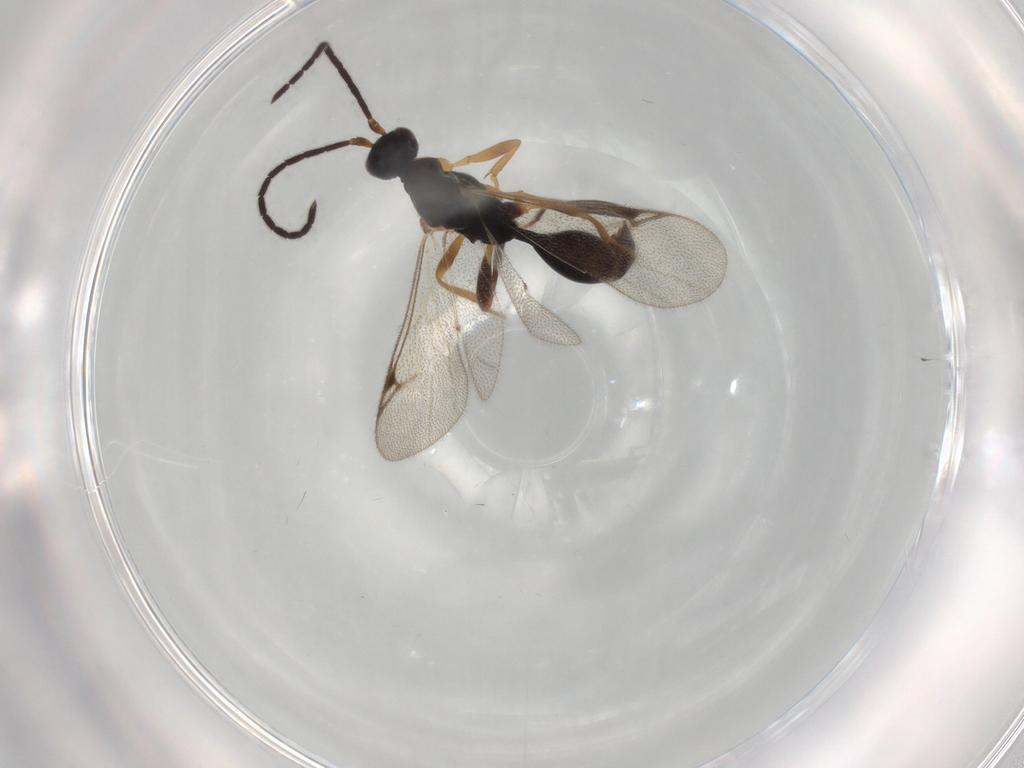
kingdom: Animalia
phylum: Arthropoda
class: Insecta
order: Hymenoptera
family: Proctotrupidae
